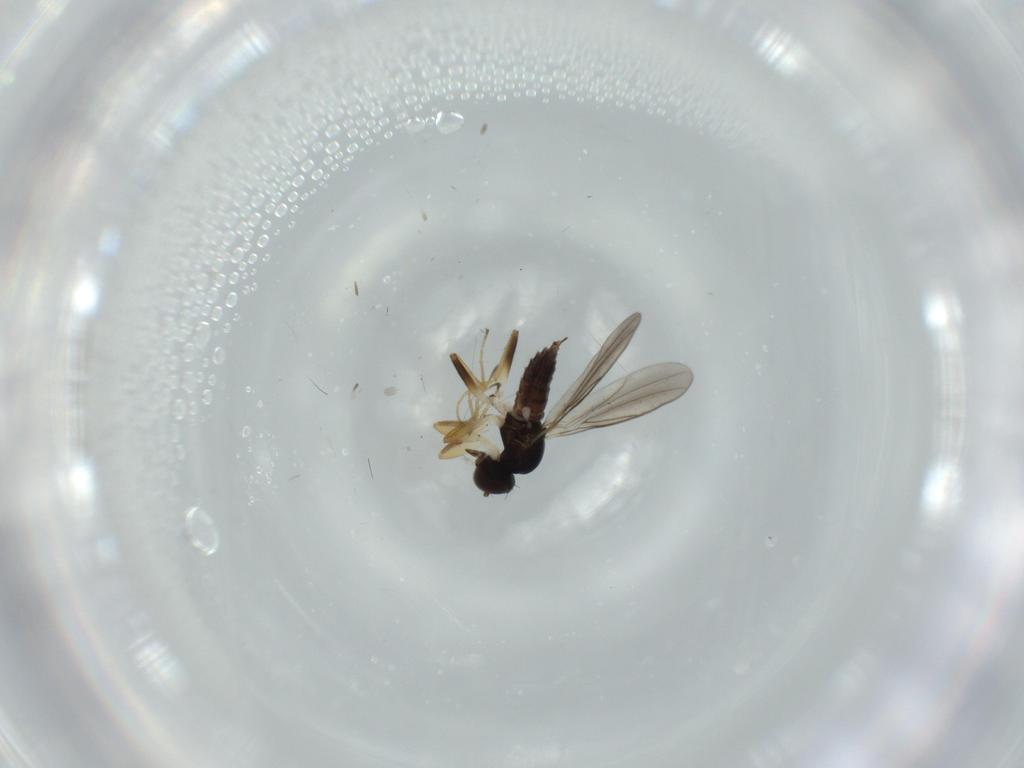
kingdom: Animalia
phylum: Arthropoda
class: Insecta
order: Diptera
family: Hybotidae
